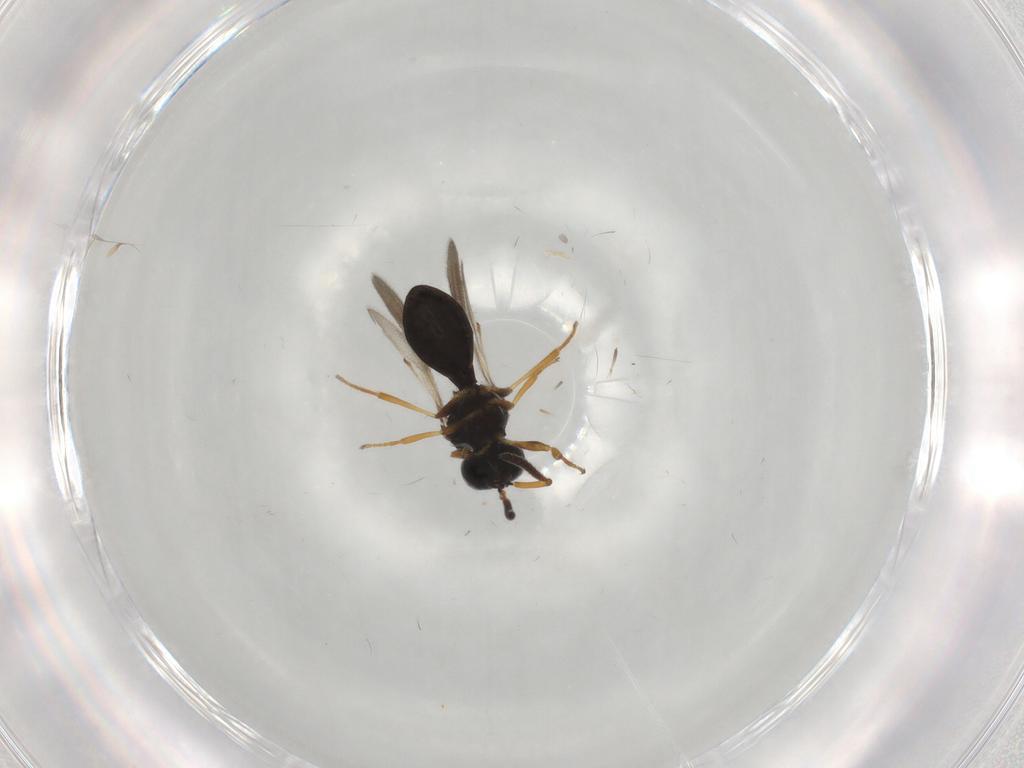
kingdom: Animalia
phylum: Arthropoda
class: Insecta
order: Hymenoptera
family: Scelionidae
